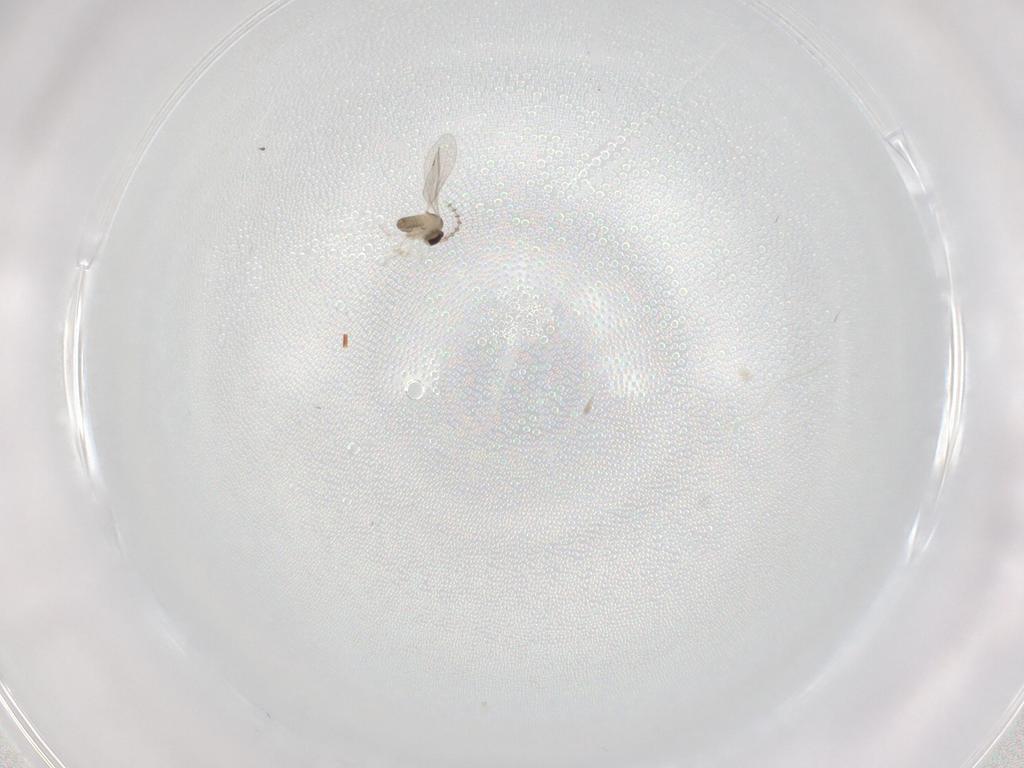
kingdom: Animalia
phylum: Arthropoda
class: Insecta
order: Diptera
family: Cecidomyiidae
